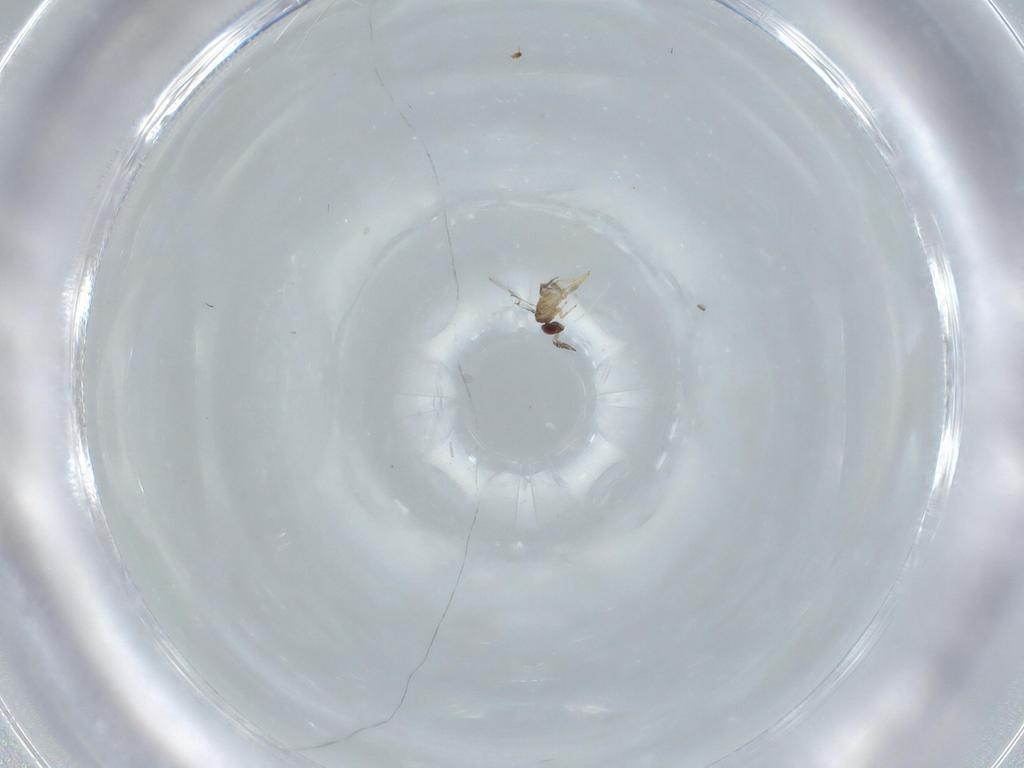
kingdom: Animalia
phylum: Arthropoda
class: Insecta
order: Hymenoptera
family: Trichogrammatidae
